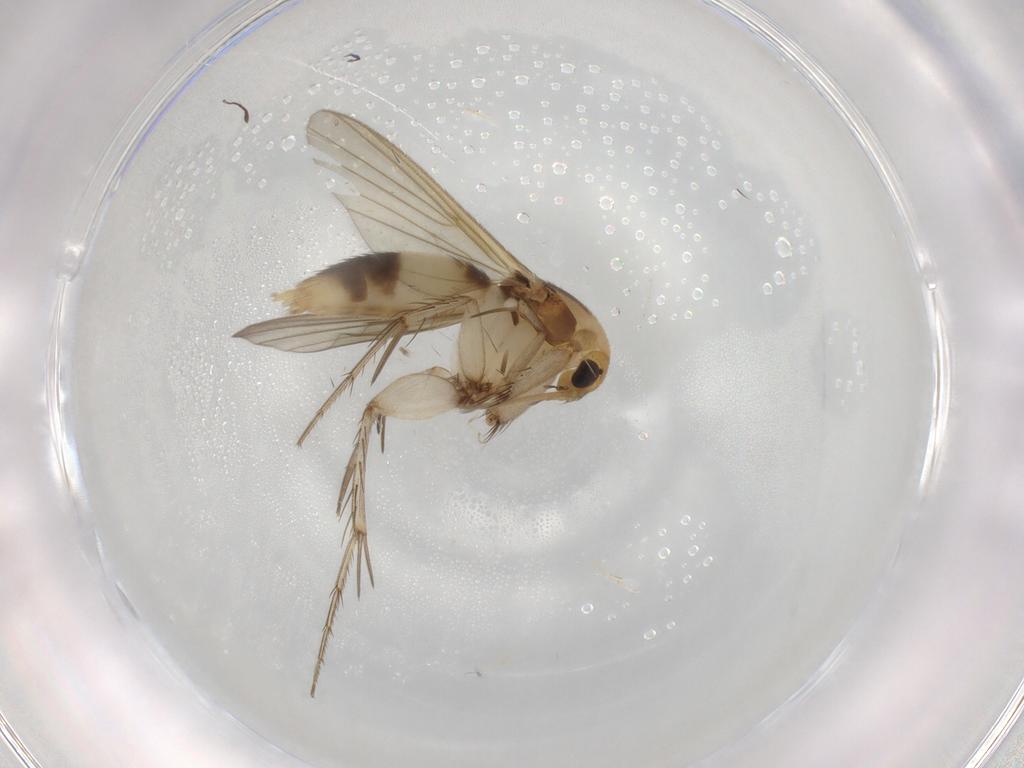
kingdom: Animalia
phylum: Arthropoda
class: Insecta
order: Diptera
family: Mycetophilidae
